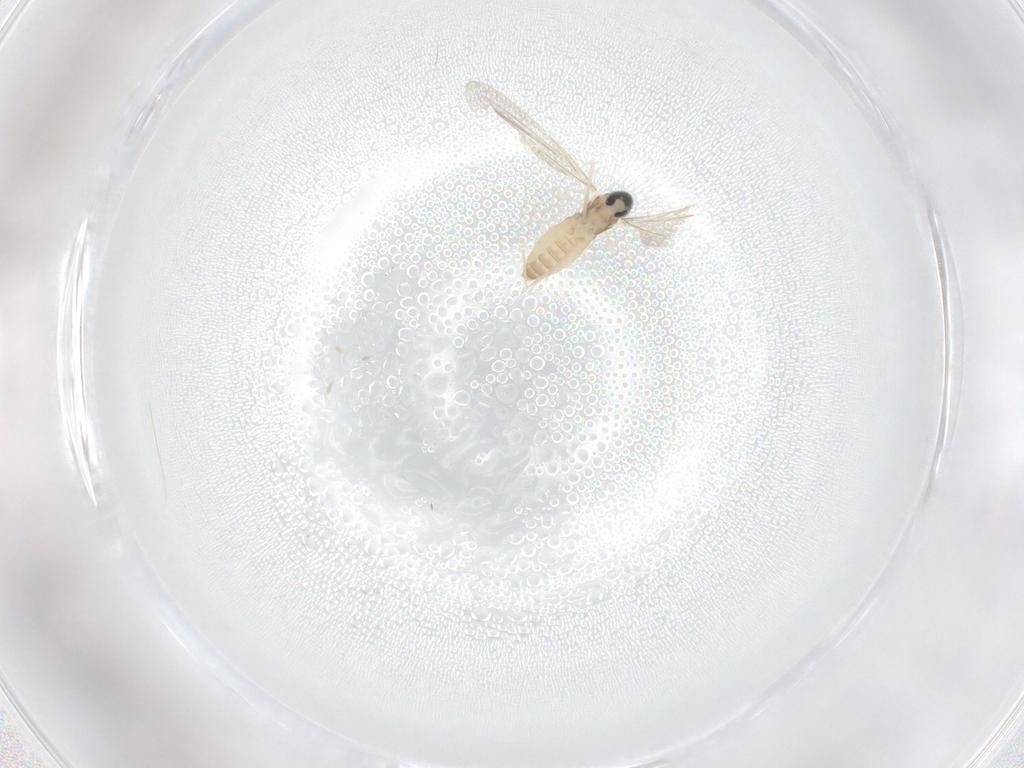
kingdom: Animalia
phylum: Arthropoda
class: Insecta
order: Diptera
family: Cecidomyiidae
